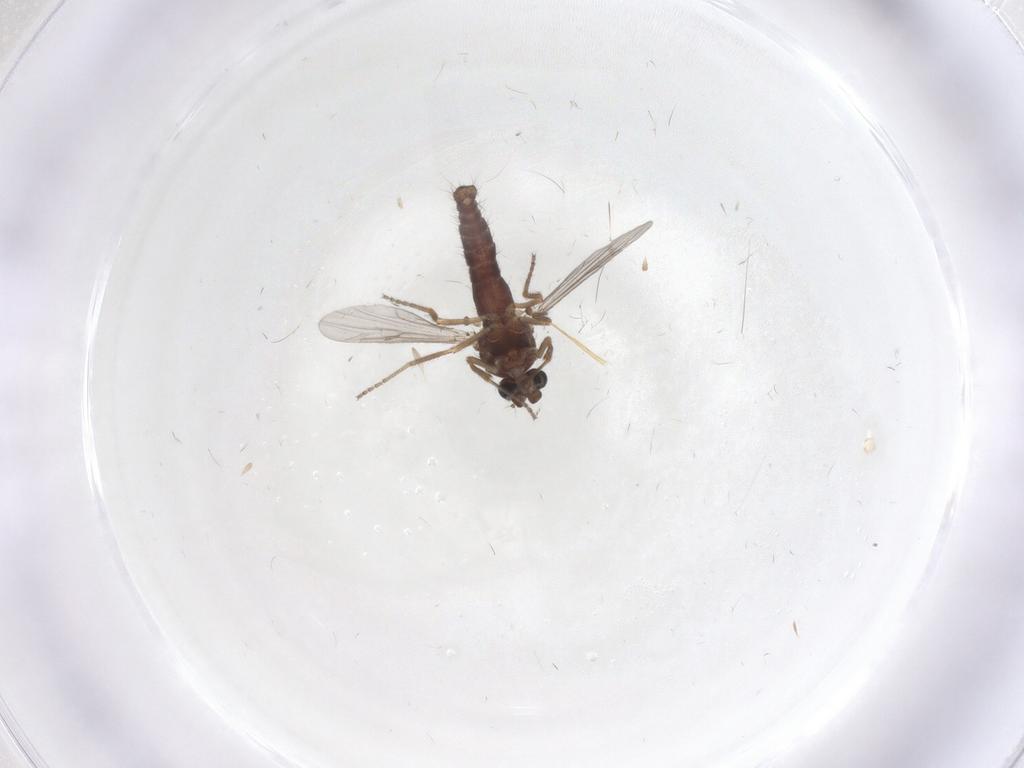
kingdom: Animalia
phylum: Arthropoda
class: Insecta
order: Diptera
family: Ceratopogonidae
